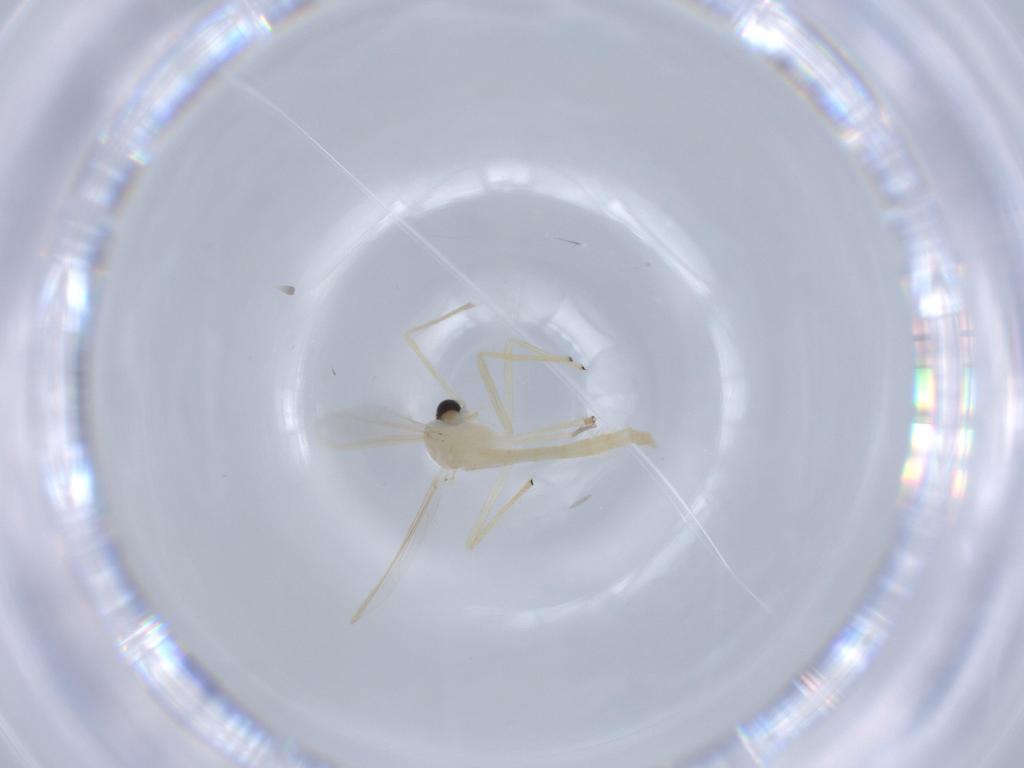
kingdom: Animalia
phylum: Arthropoda
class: Insecta
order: Diptera
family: Chironomidae
